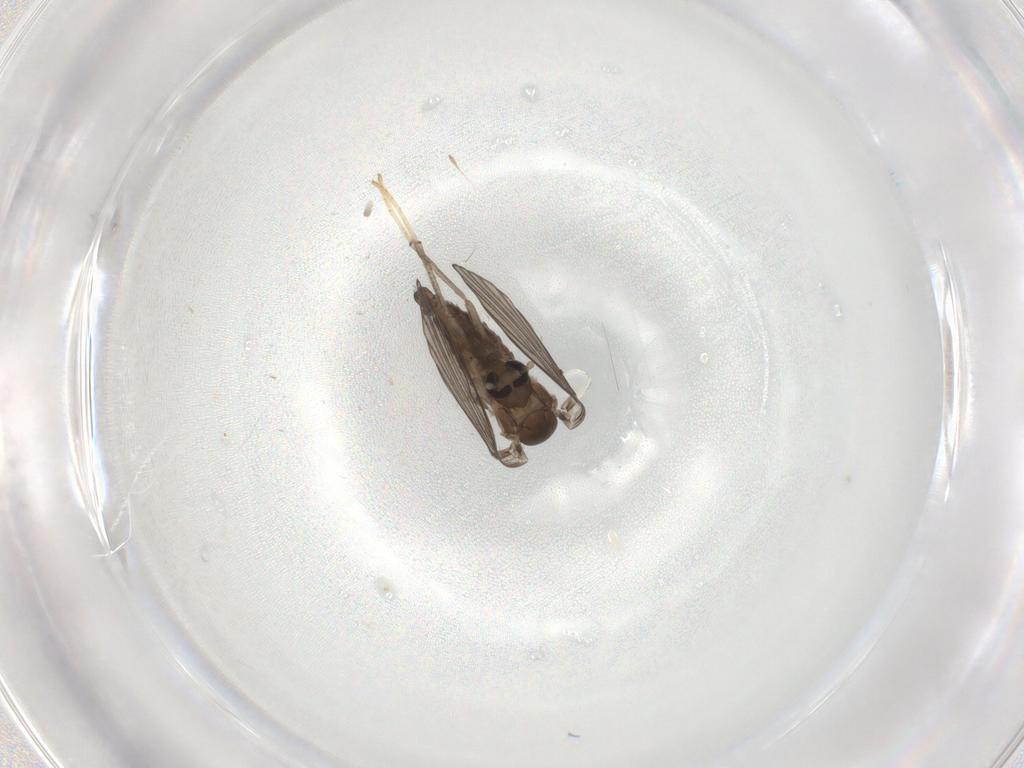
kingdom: Animalia
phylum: Arthropoda
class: Insecta
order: Diptera
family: Psychodidae
